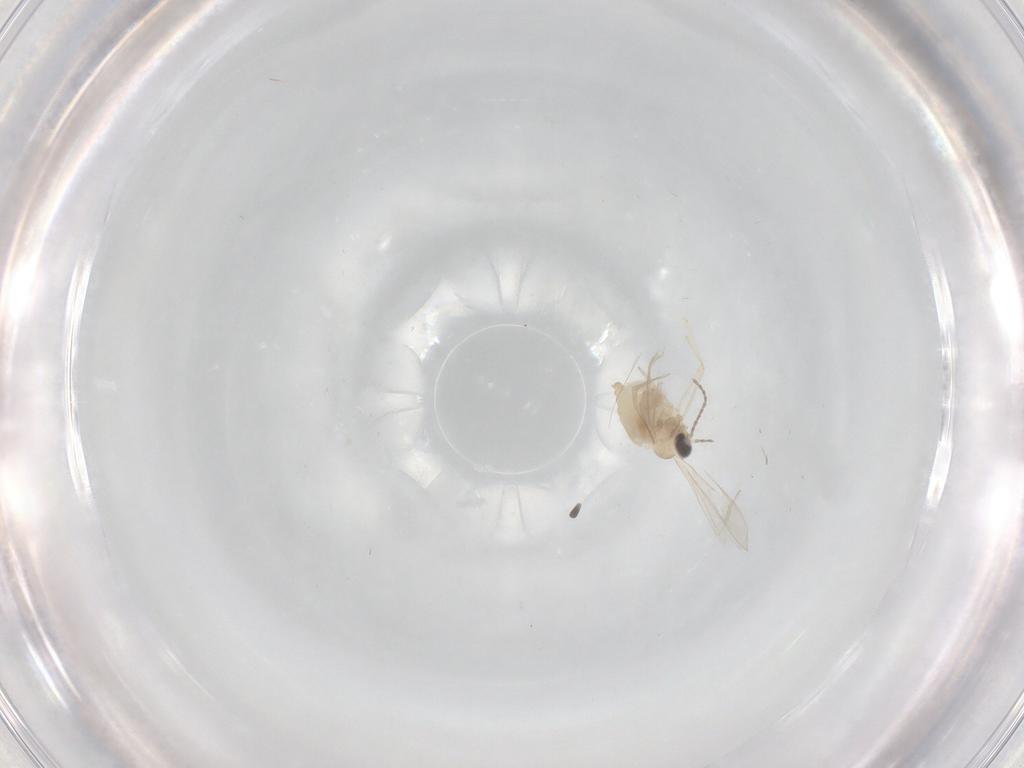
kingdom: Animalia
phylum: Arthropoda
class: Insecta
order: Diptera
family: Cecidomyiidae
